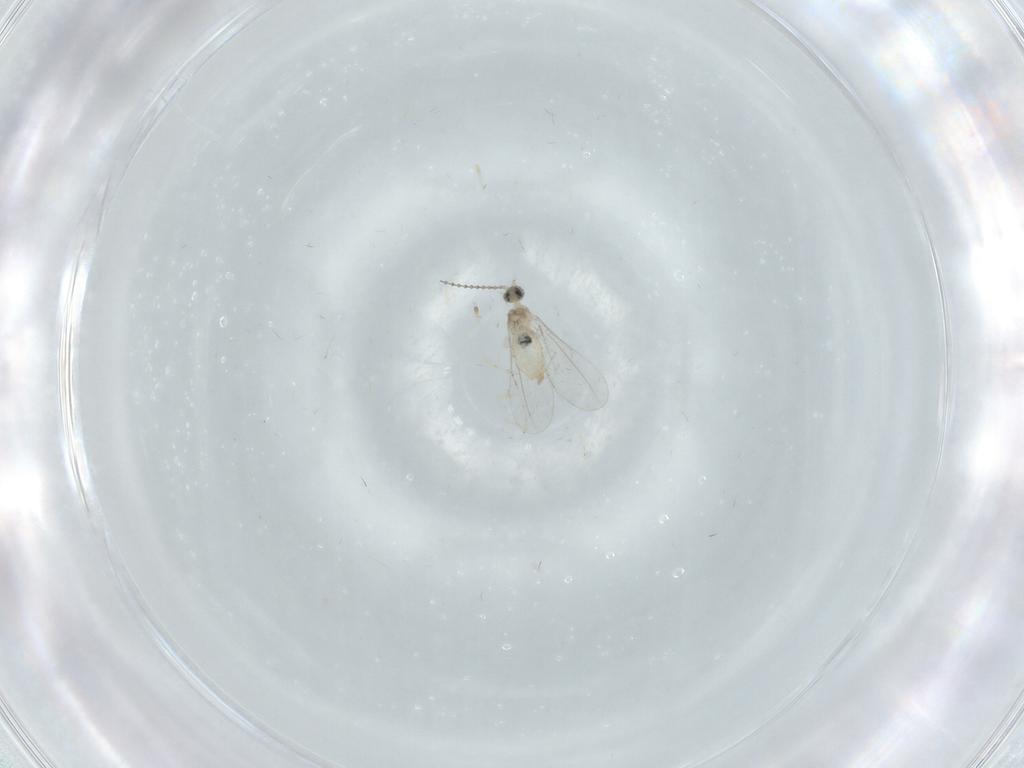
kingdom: Animalia
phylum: Arthropoda
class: Insecta
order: Diptera
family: Cecidomyiidae
